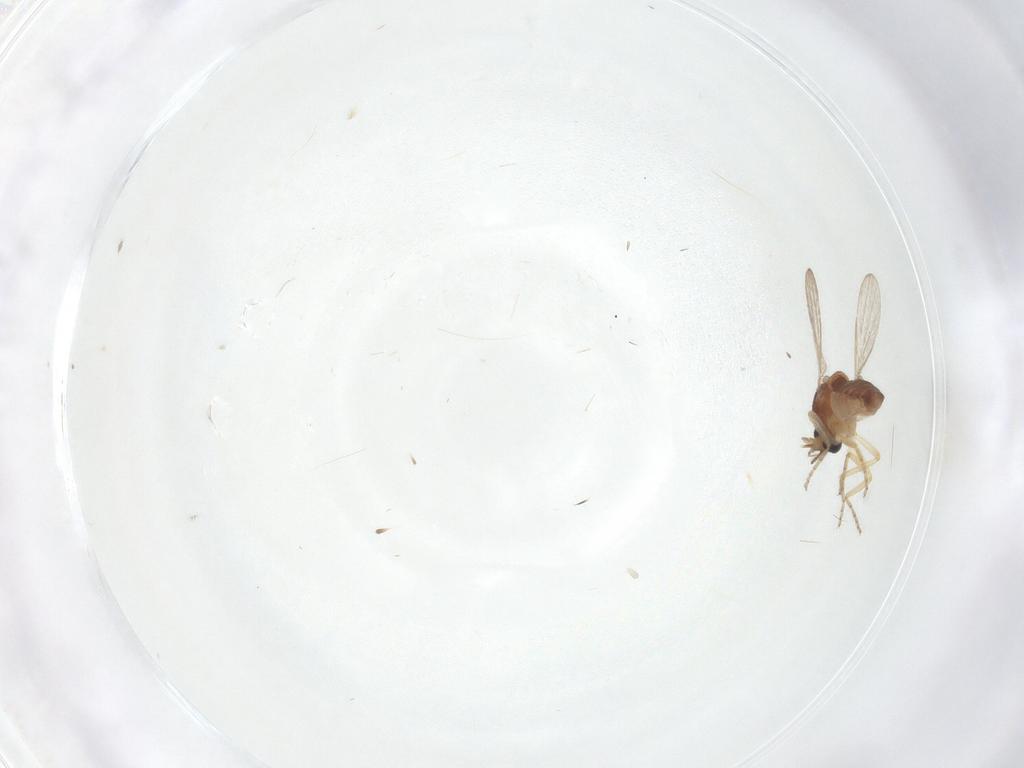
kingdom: Animalia
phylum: Arthropoda
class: Insecta
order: Diptera
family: Ceratopogonidae
